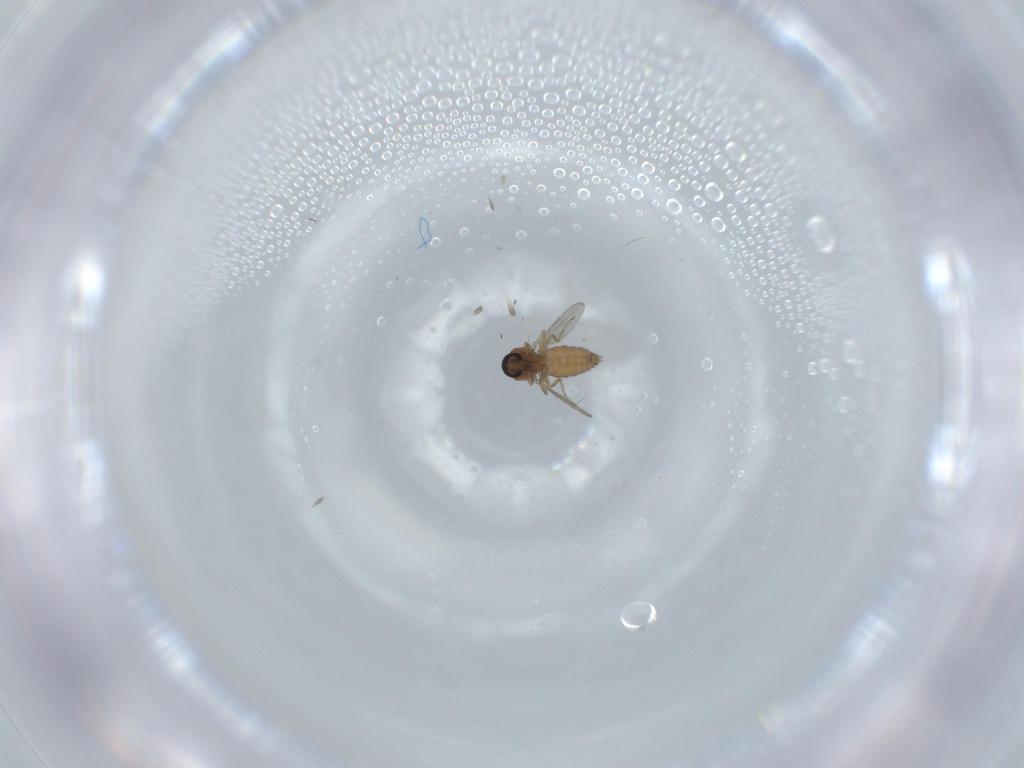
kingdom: Animalia
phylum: Arthropoda
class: Insecta
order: Diptera
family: Ceratopogonidae
